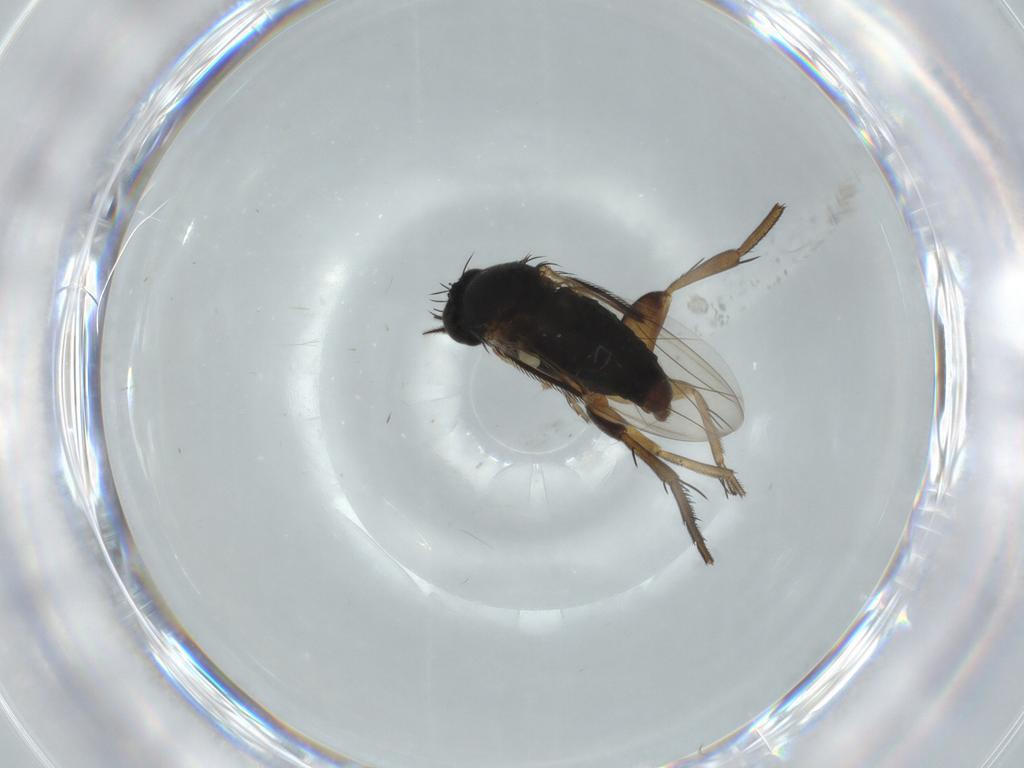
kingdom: Animalia
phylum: Arthropoda
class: Insecta
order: Diptera
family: Phoridae
